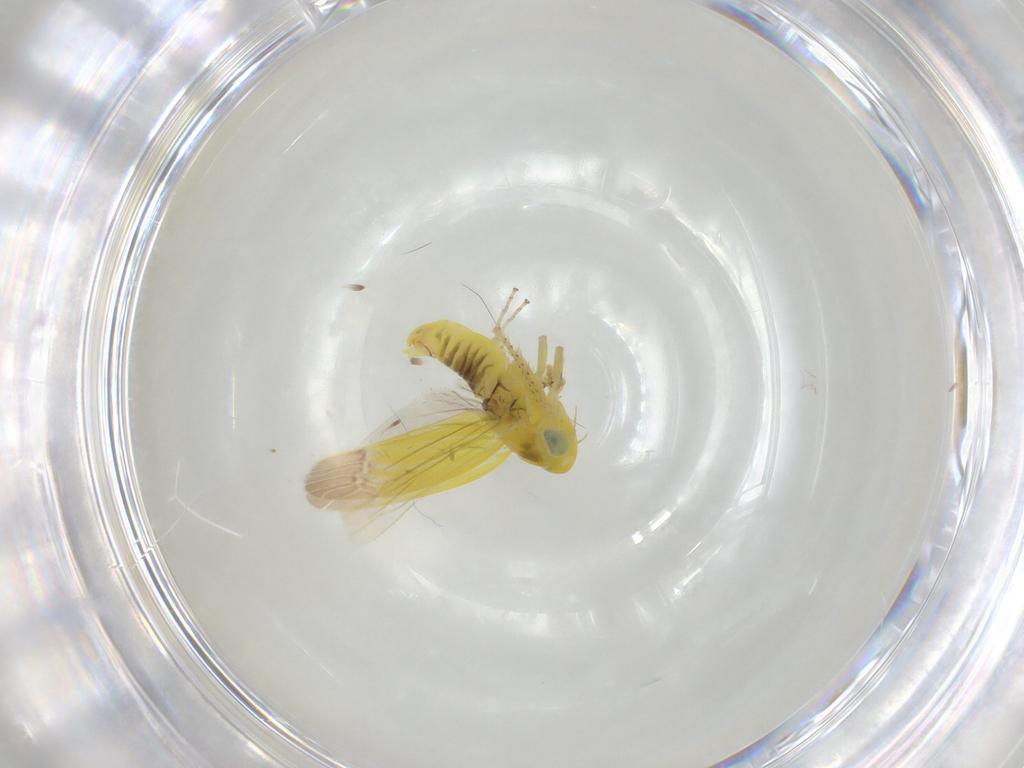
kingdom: Animalia
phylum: Arthropoda
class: Insecta
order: Hemiptera
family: Cicadellidae
